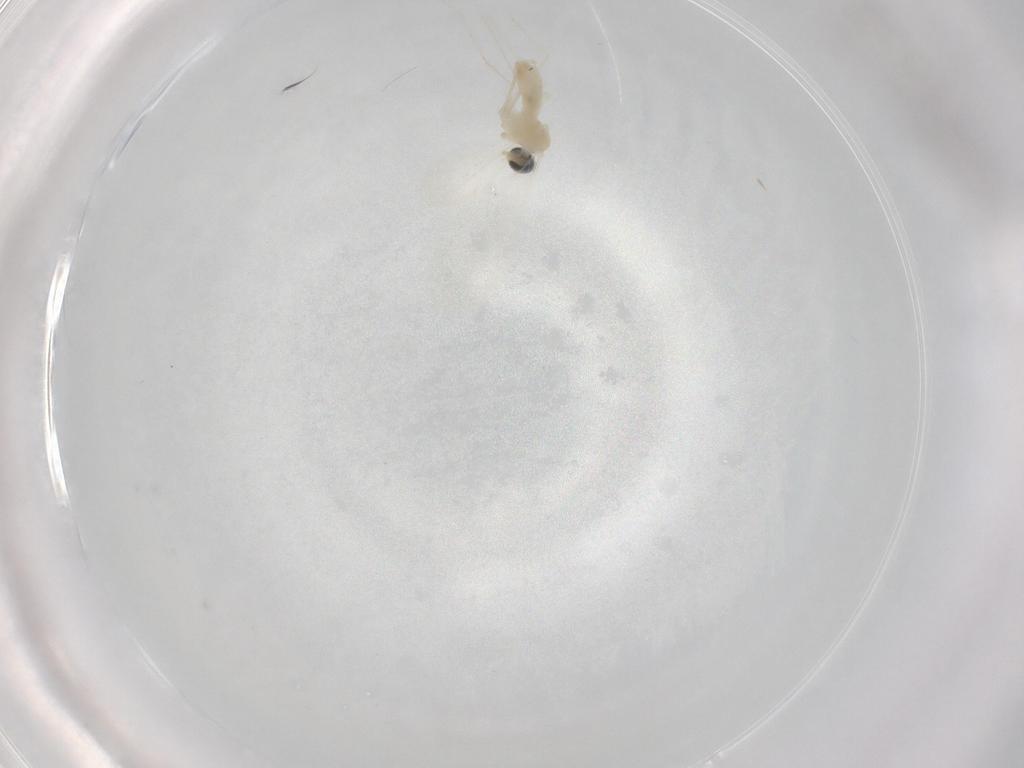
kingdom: Animalia
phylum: Arthropoda
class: Insecta
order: Diptera
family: Cecidomyiidae
